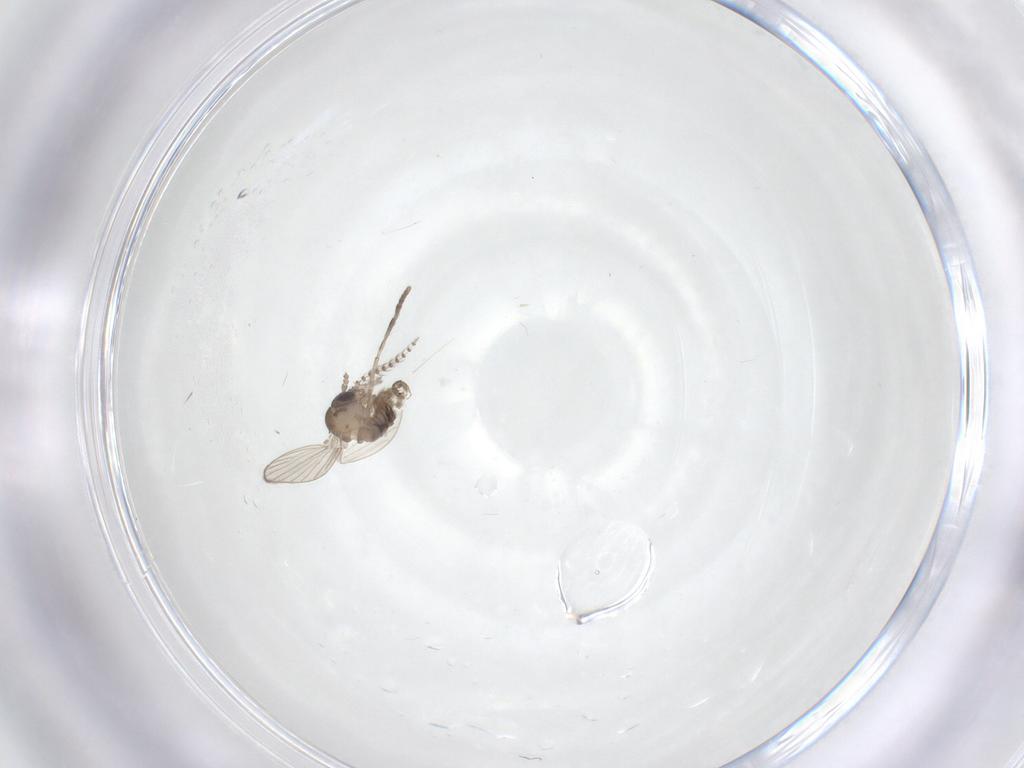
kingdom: Animalia
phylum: Arthropoda
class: Insecta
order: Diptera
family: Psychodidae
